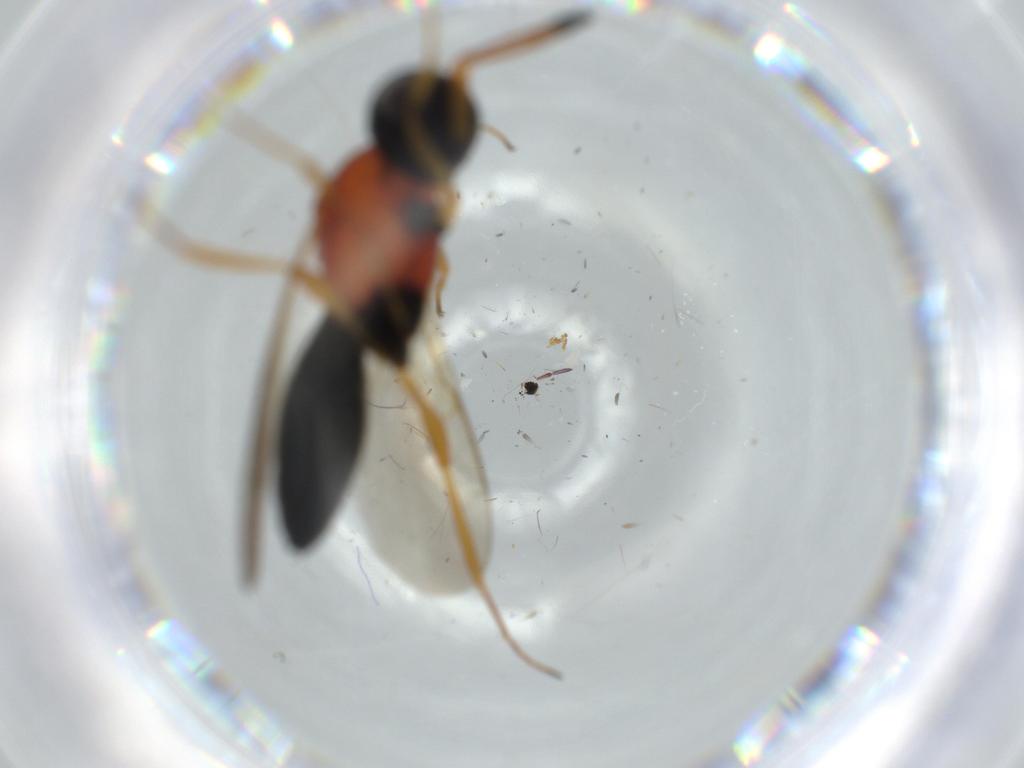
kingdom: Animalia
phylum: Arthropoda
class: Insecta
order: Hymenoptera
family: Scelionidae
